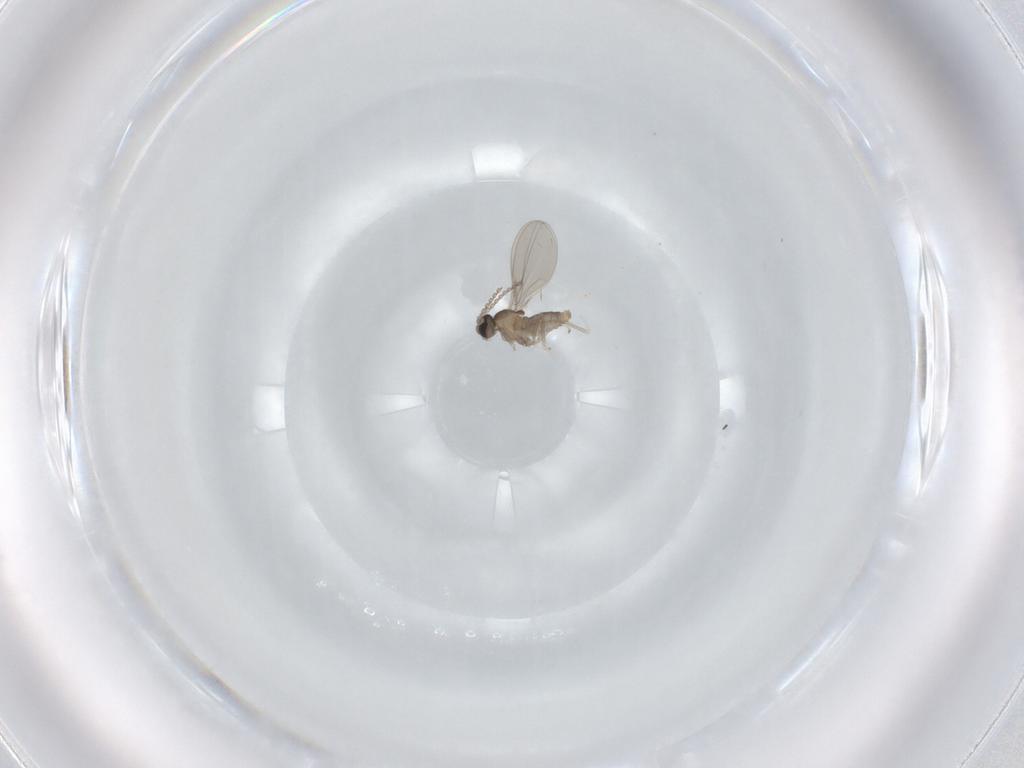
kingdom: Animalia
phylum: Arthropoda
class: Insecta
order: Diptera
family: Cecidomyiidae
